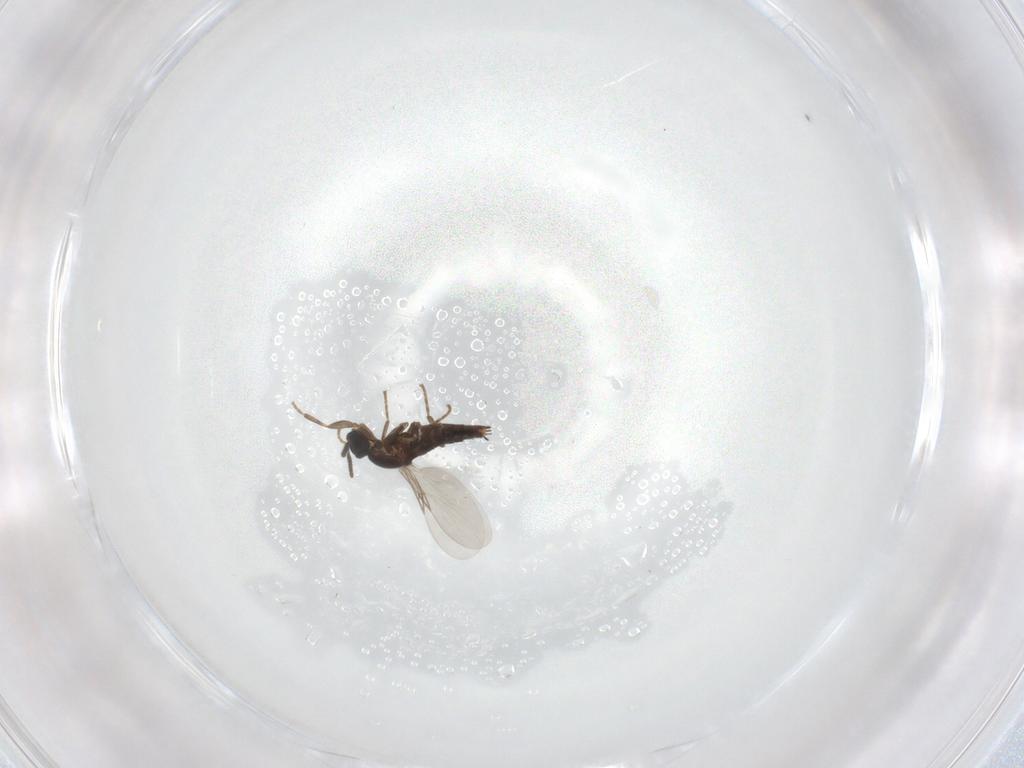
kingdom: Animalia
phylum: Arthropoda
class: Insecta
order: Diptera
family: Scatopsidae
